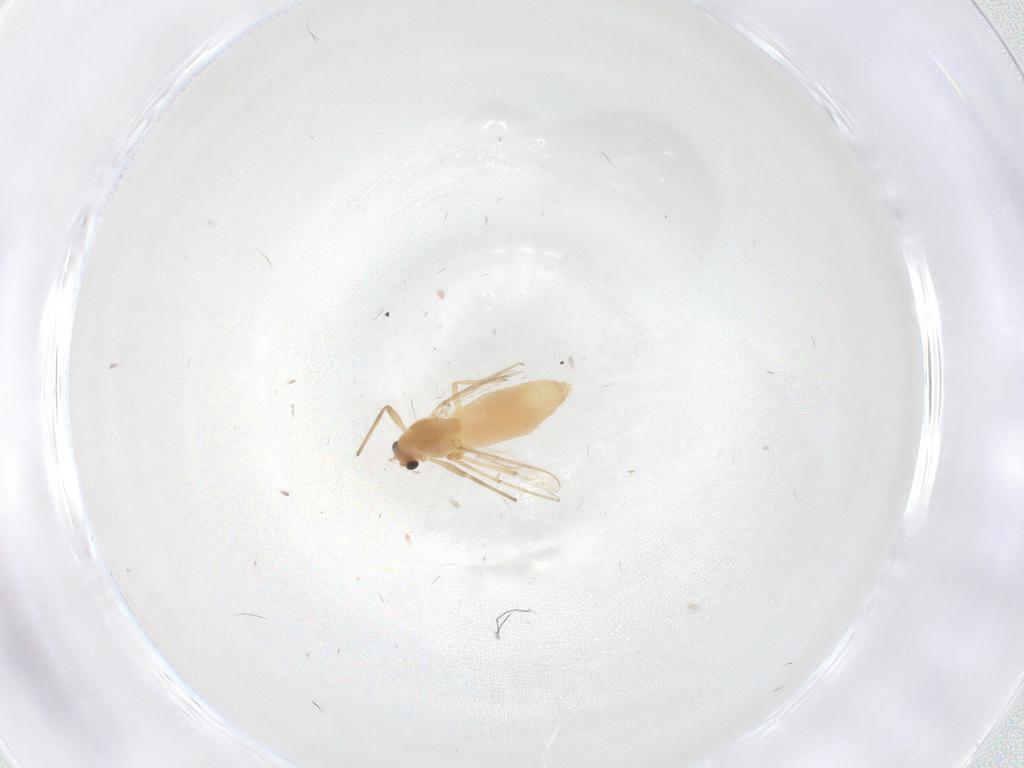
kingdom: Animalia
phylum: Arthropoda
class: Insecta
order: Diptera
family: Chironomidae
